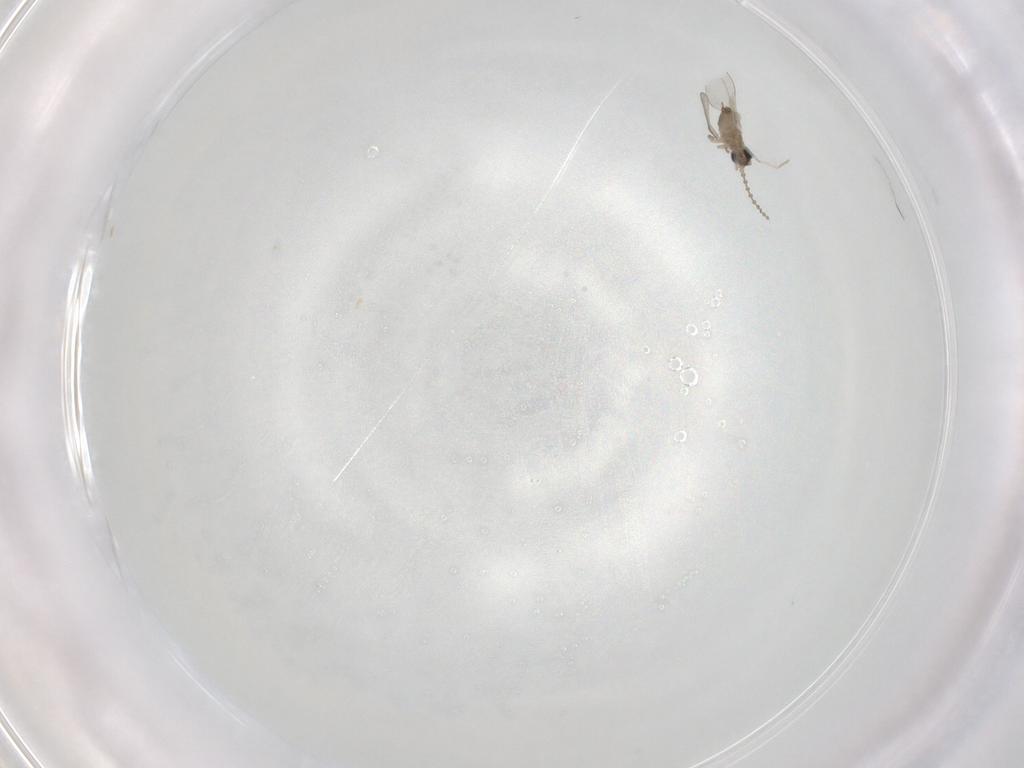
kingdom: Animalia
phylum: Arthropoda
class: Insecta
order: Diptera
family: Cecidomyiidae
